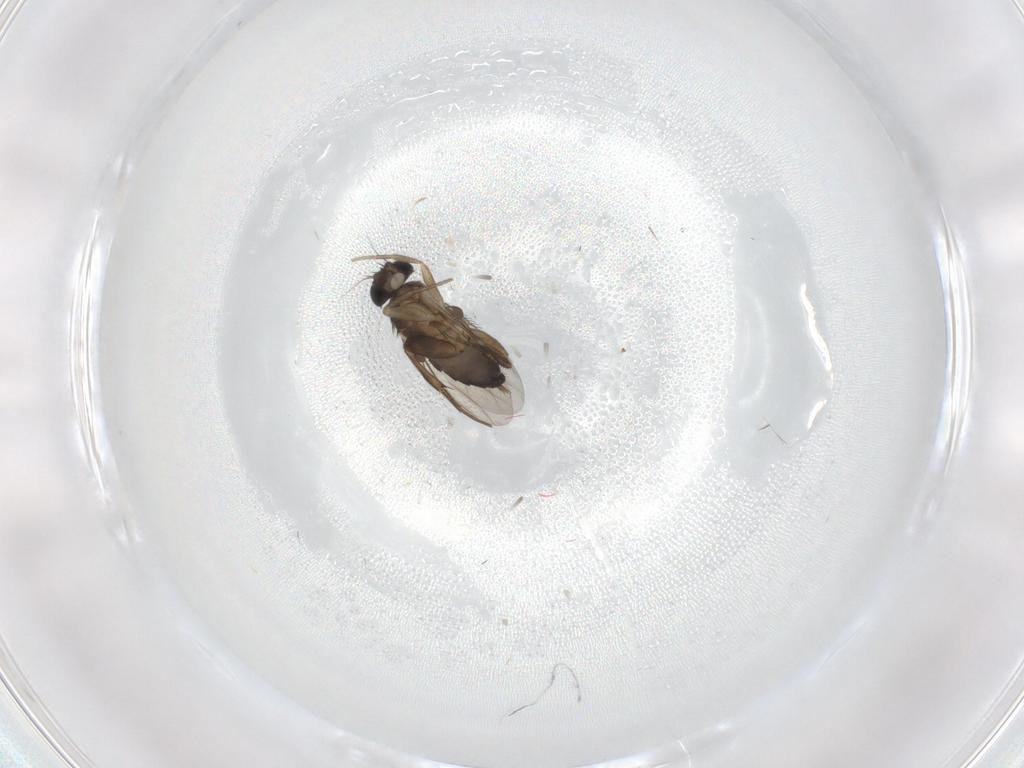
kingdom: Animalia
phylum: Arthropoda
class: Insecta
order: Diptera
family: Phoridae
